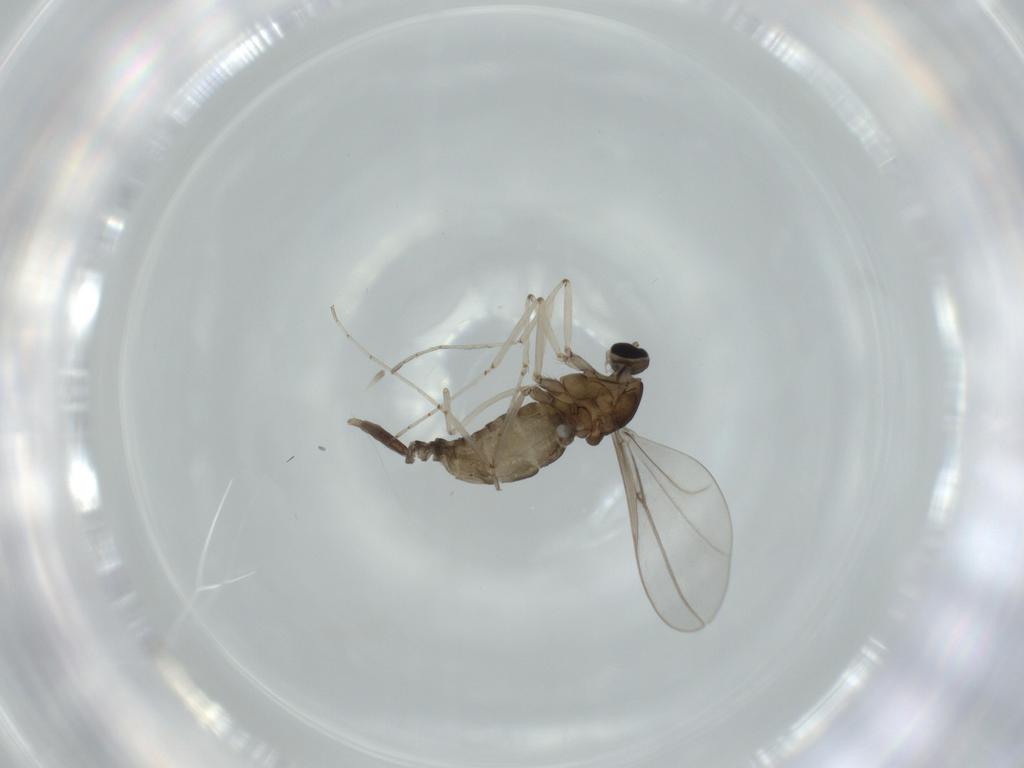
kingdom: Animalia
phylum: Arthropoda
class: Insecta
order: Diptera
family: Cecidomyiidae
